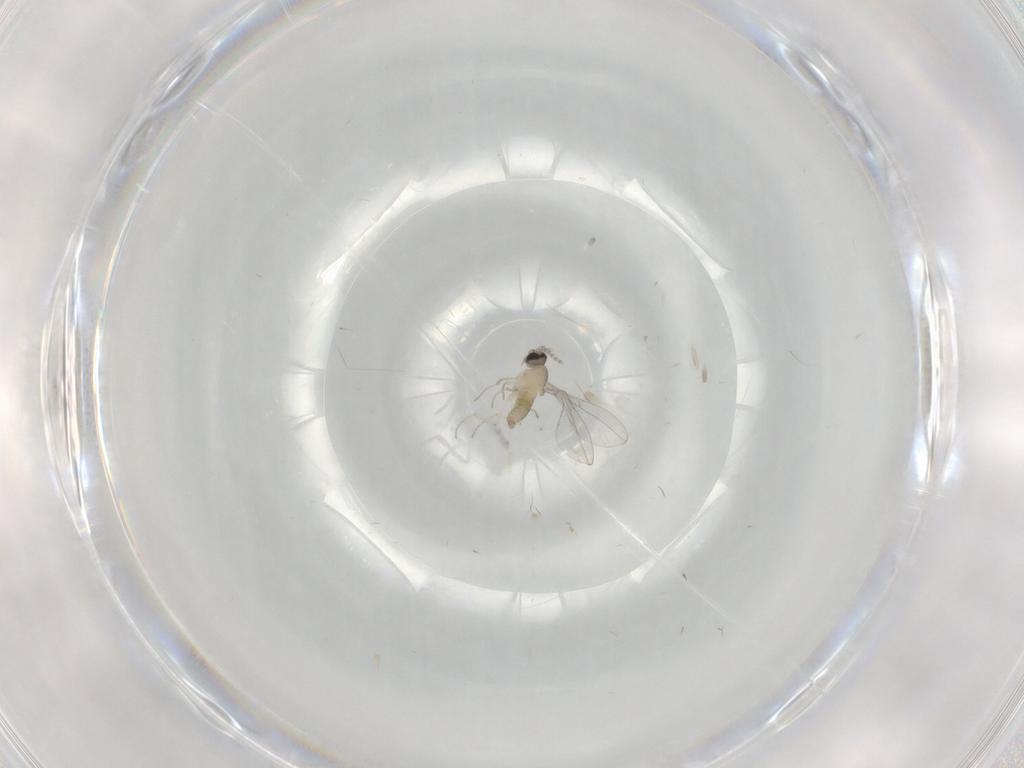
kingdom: Animalia
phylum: Arthropoda
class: Insecta
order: Diptera
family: Cecidomyiidae
